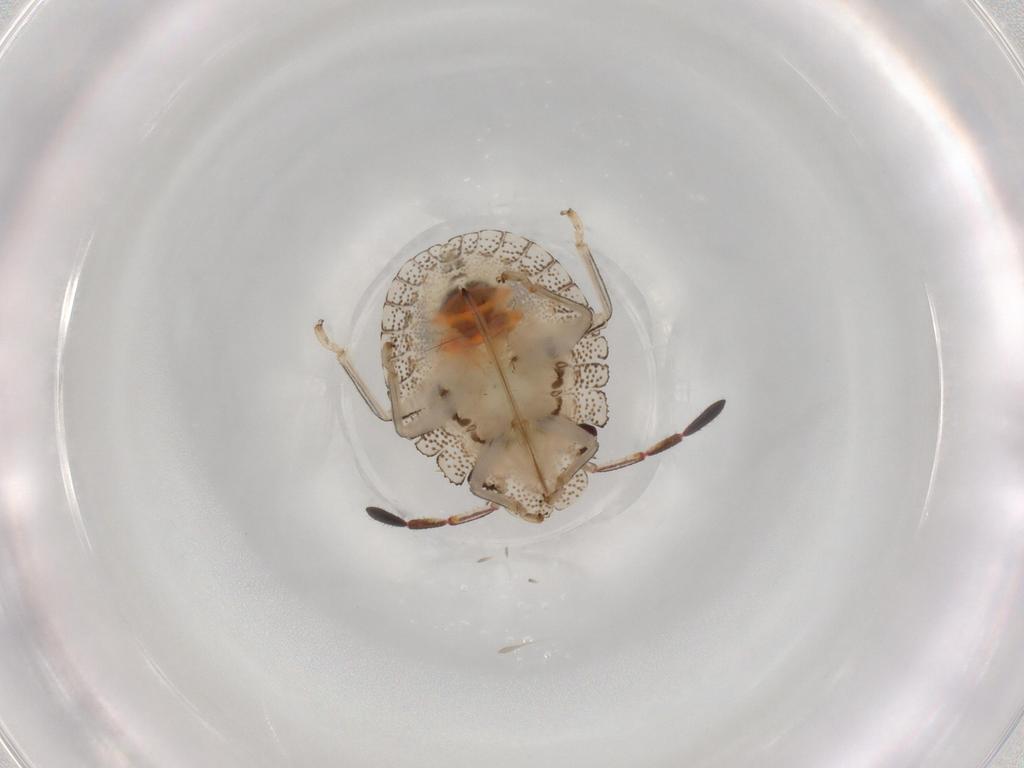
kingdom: Animalia
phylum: Arthropoda
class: Insecta
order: Hemiptera
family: Pentatomidae
